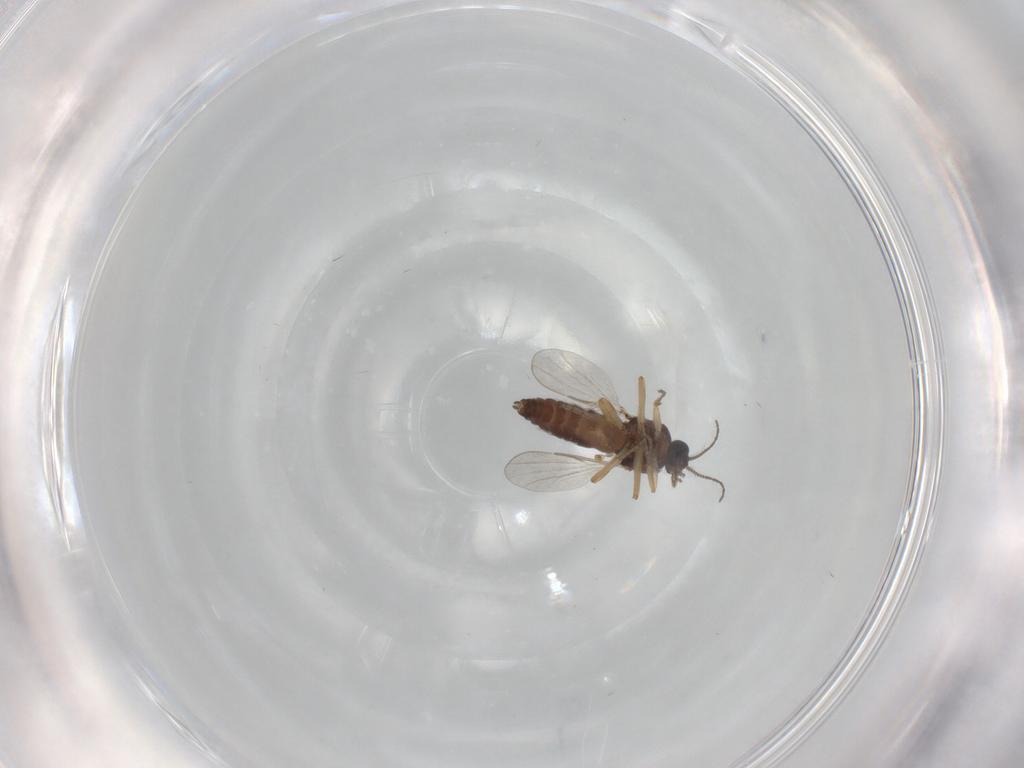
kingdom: Animalia
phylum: Arthropoda
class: Insecta
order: Diptera
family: Ceratopogonidae
